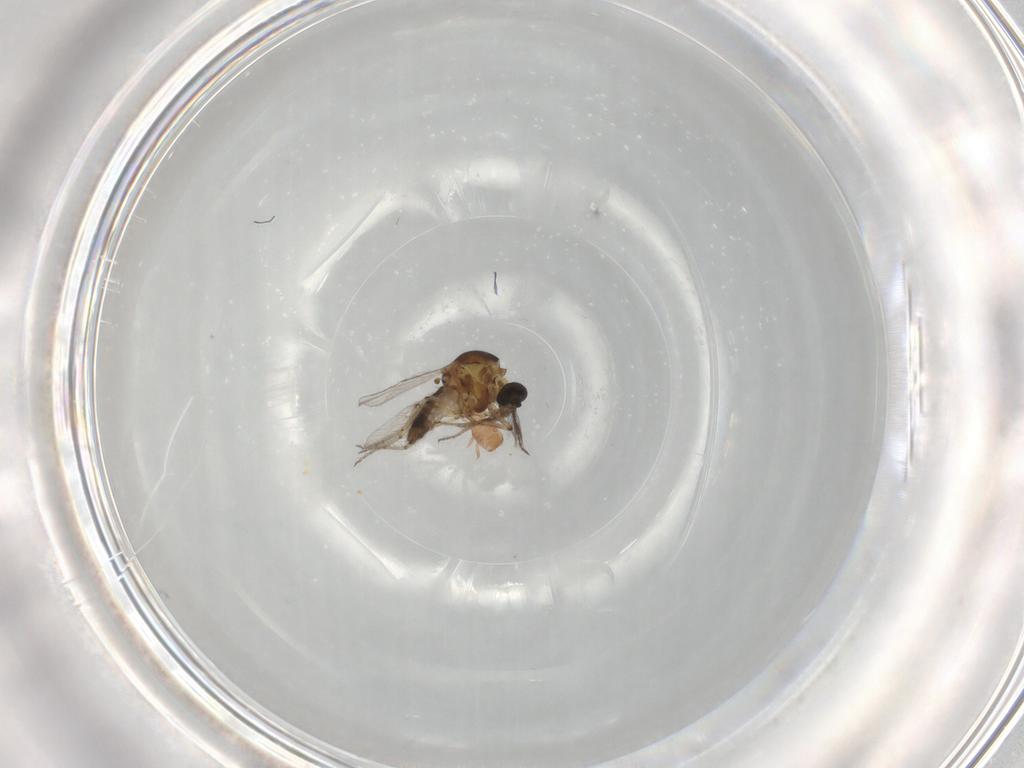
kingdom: Animalia
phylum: Arthropoda
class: Insecta
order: Diptera
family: Ceratopogonidae
